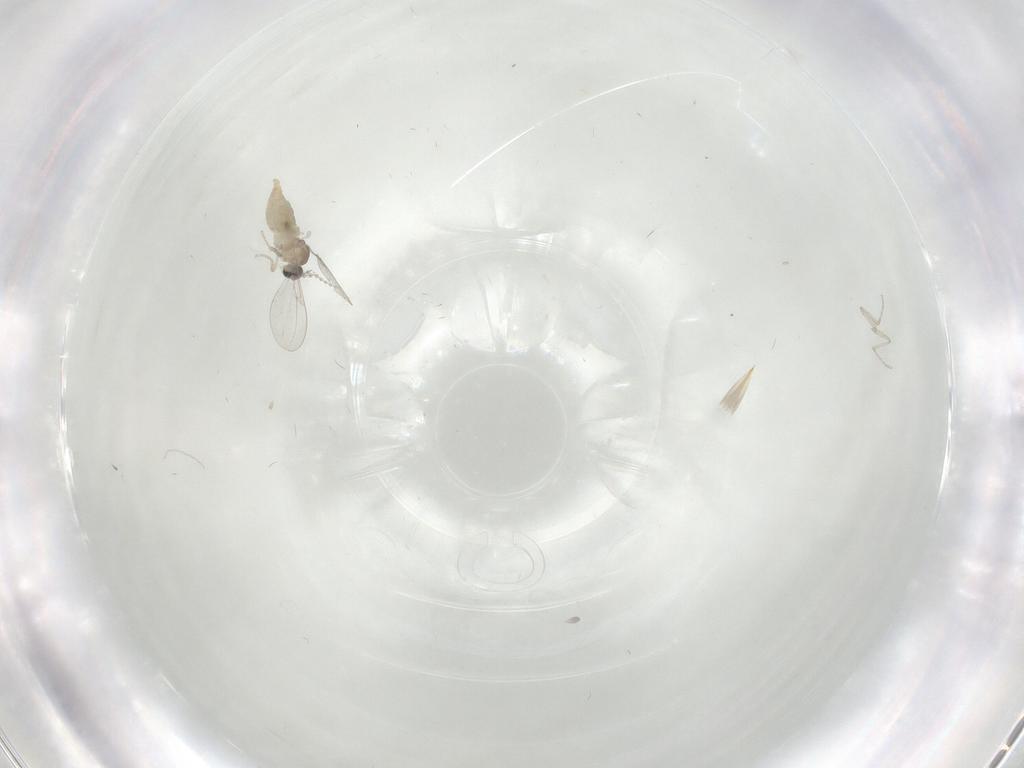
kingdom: Animalia
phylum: Arthropoda
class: Insecta
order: Diptera
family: Cecidomyiidae
